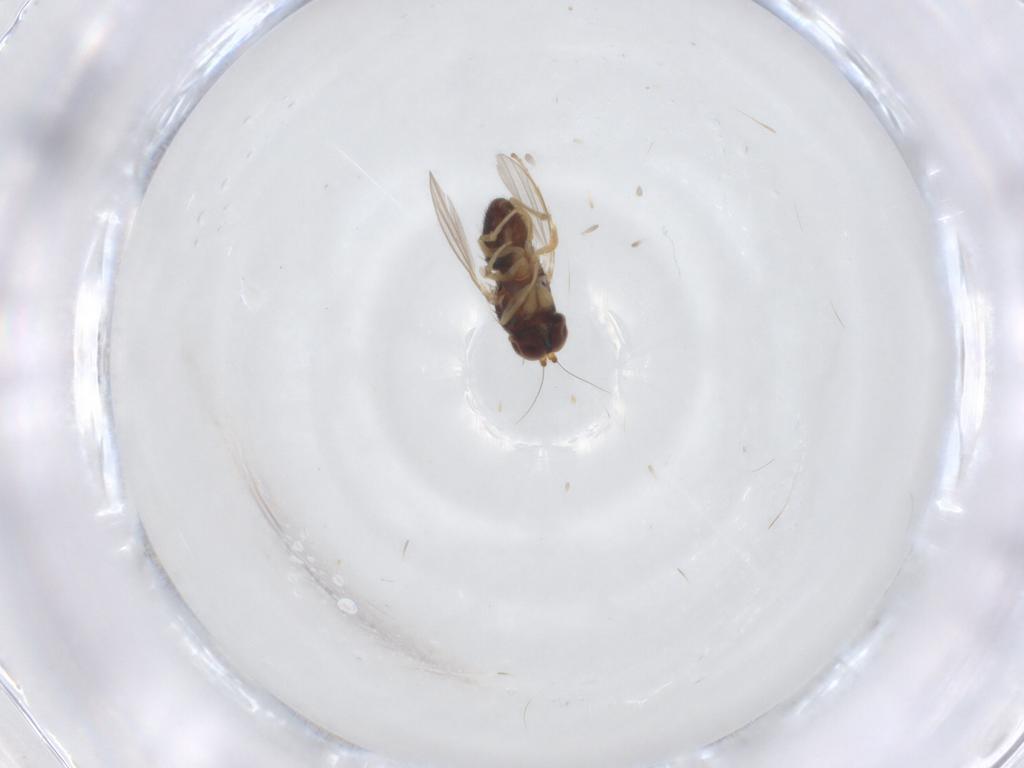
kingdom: Animalia
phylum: Arthropoda
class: Insecta
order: Diptera
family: Dolichopodidae
